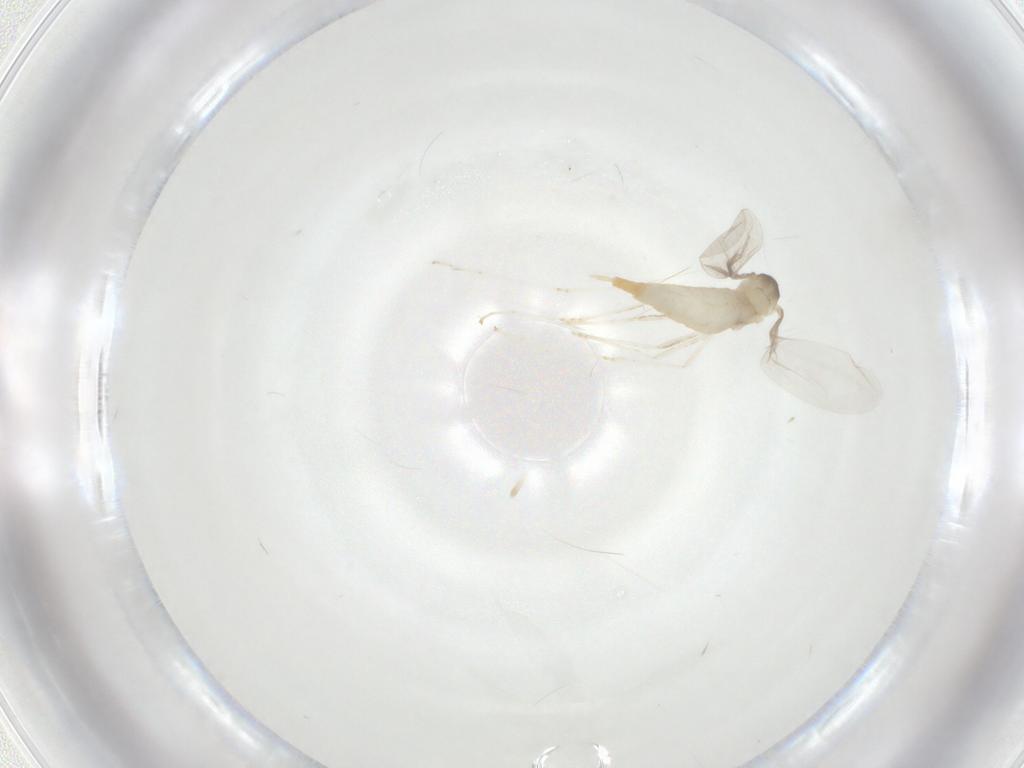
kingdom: Animalia
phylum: Arthropoda
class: Insecta
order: Diptera
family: Cecidomyiidae
